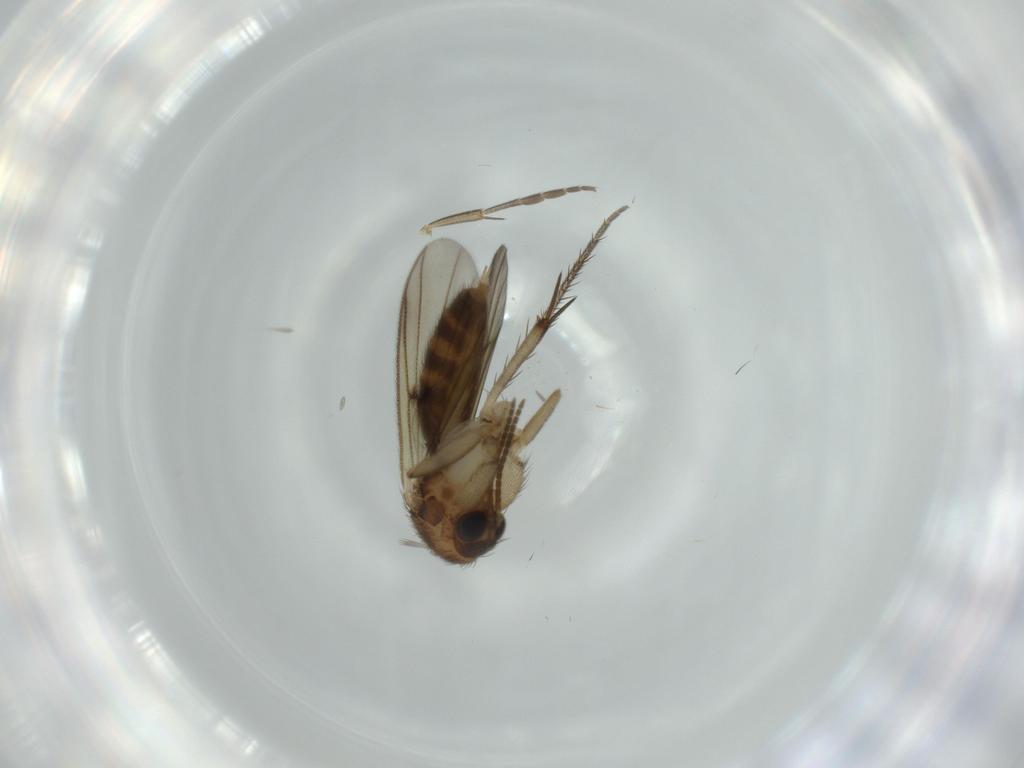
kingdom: Animalia
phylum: Arthropoda
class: Insecta
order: Diptera
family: Mycetophilidae
